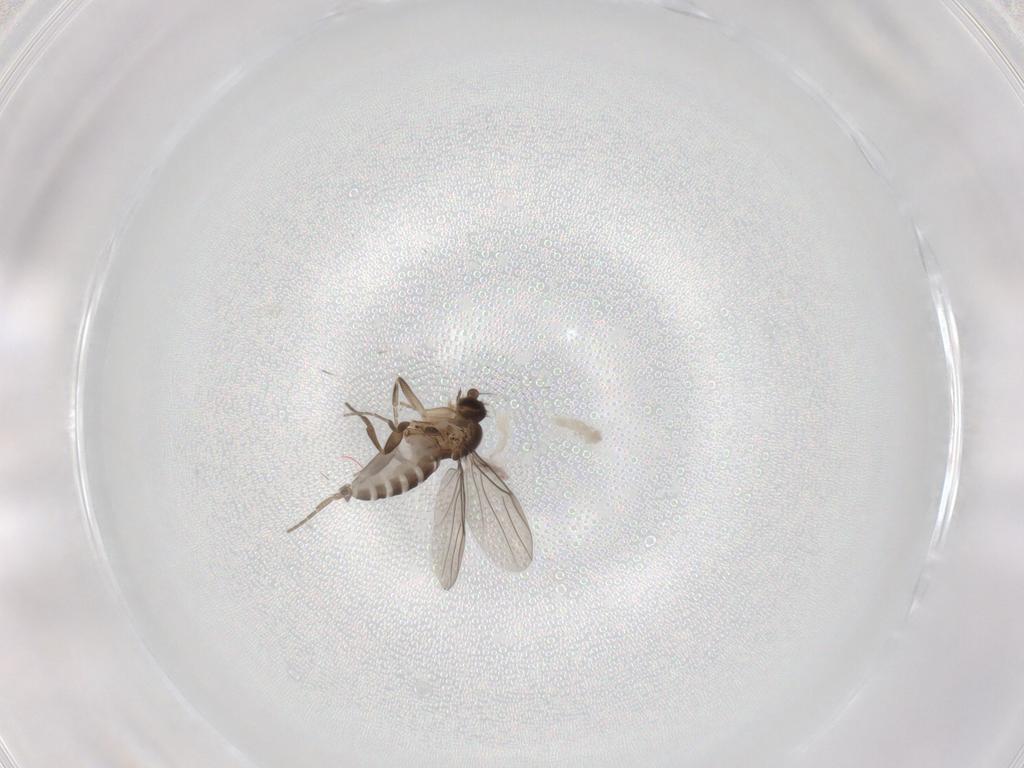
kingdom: Animalia
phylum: Arthropoda
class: Insecta
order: Diptera
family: Phoridae
